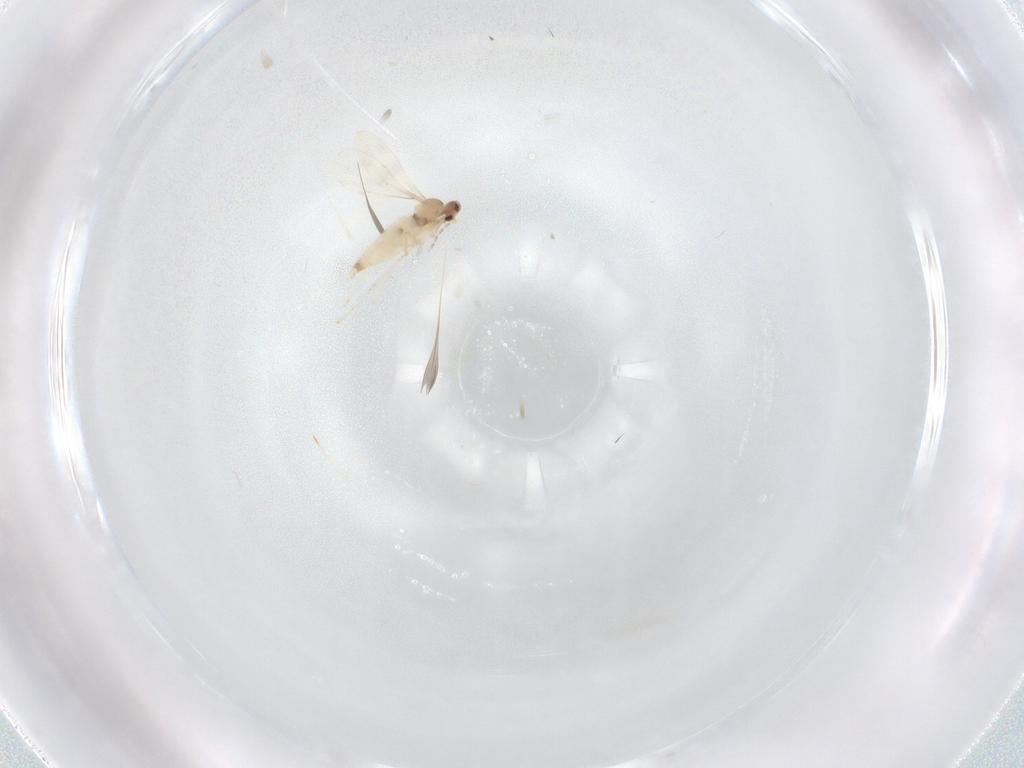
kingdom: Animalia
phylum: Arthropoda
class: Insecta
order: Diptera
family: Cecidomyiidae
